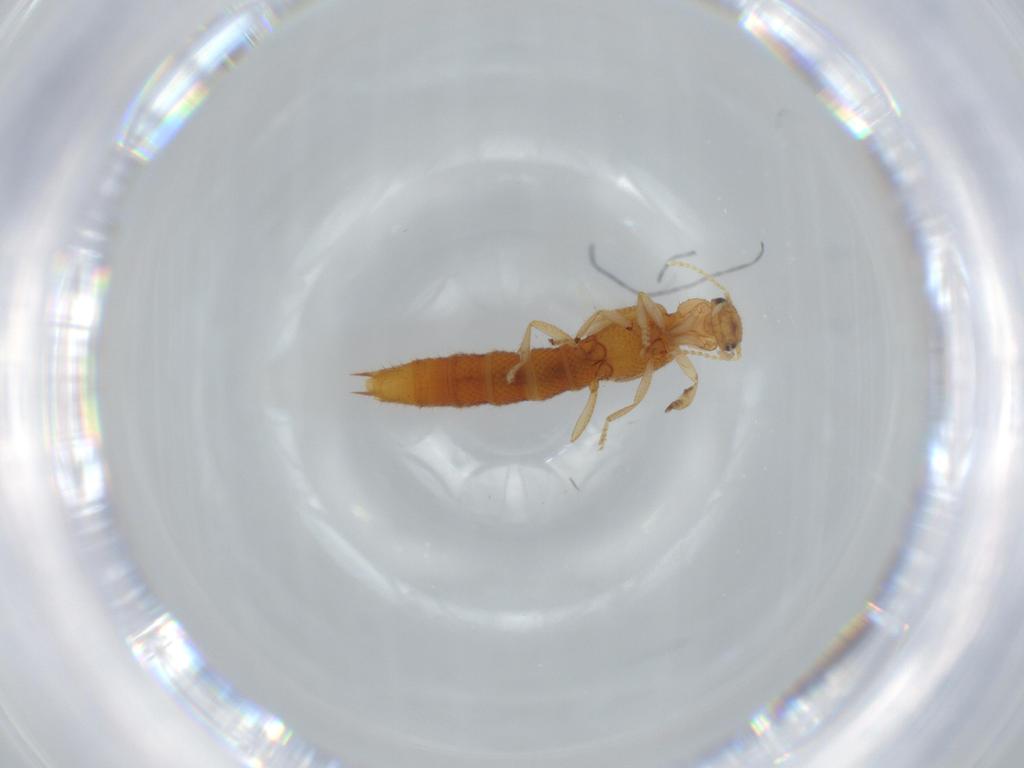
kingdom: Animalia
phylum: Arthropoda
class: Insecta
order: Coleoptera
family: Staphylinidae
